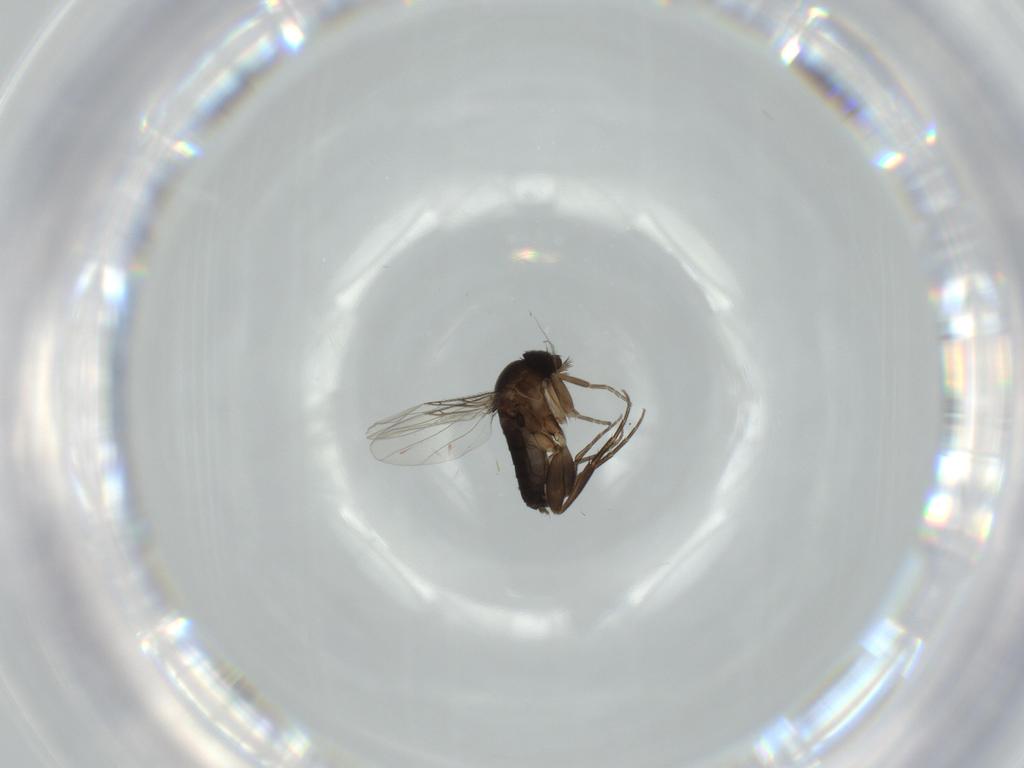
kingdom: Animalia
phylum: Arthropoda
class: Insecta
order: Diptera
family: Phoridae
